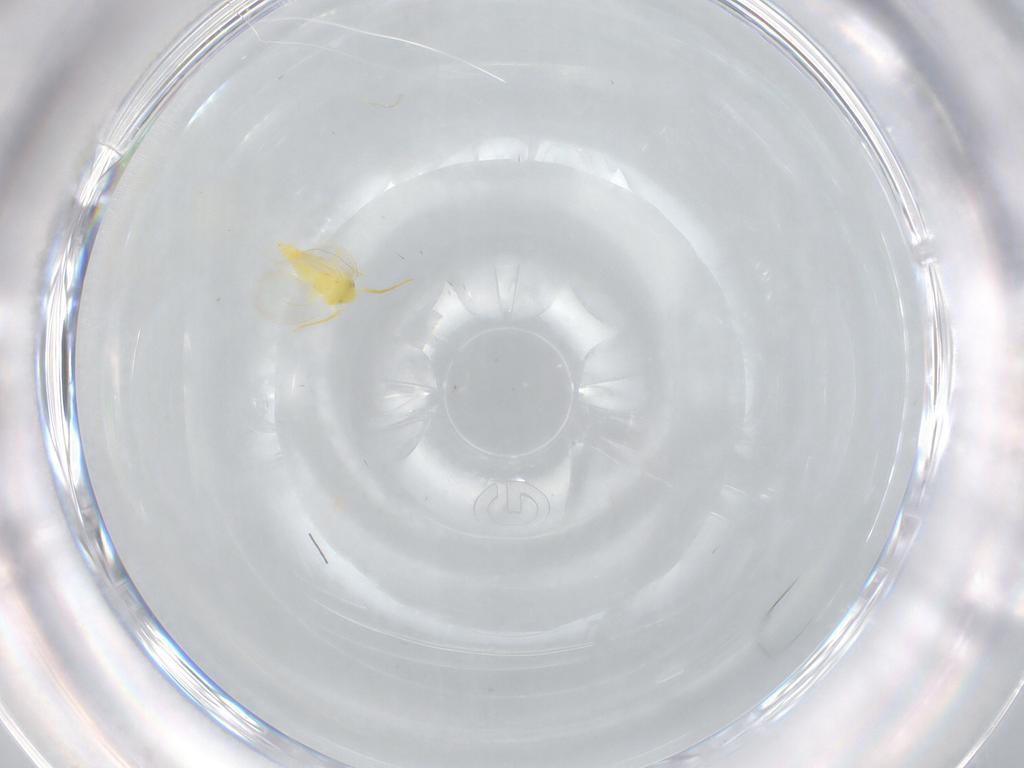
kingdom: Animalia
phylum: Arthropoda
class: Insecta
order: Hemiptera
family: Aleyrodidae
